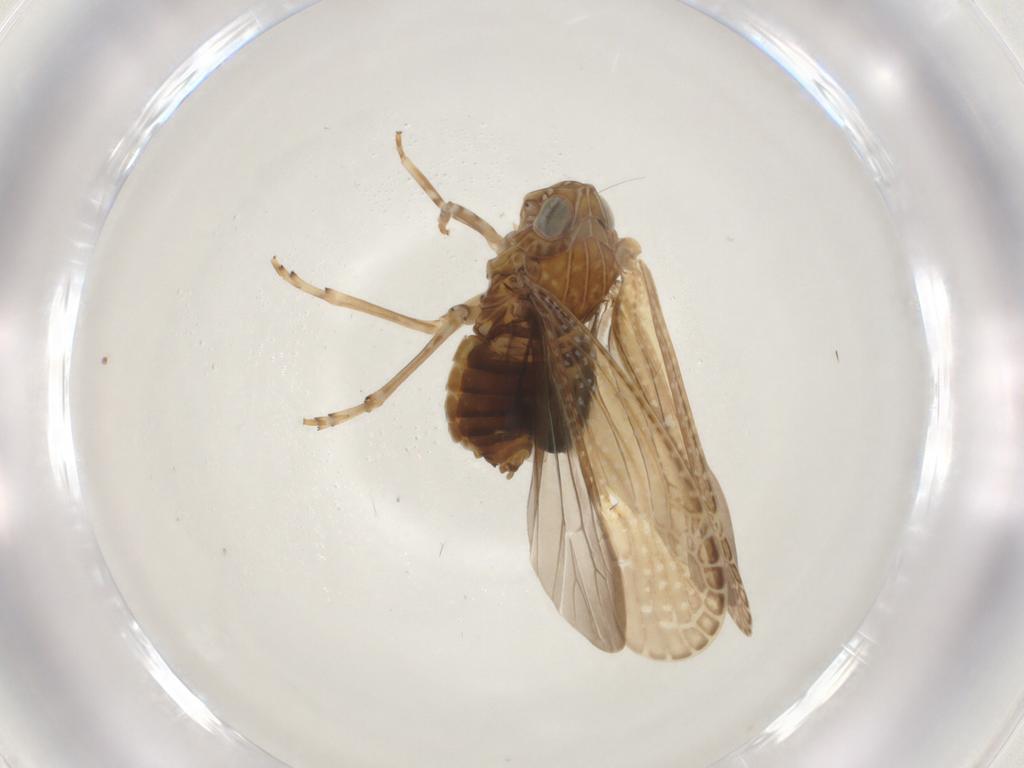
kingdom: Animalia
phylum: Arthropoda
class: Insecta
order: Hemiptera
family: Achilidae
